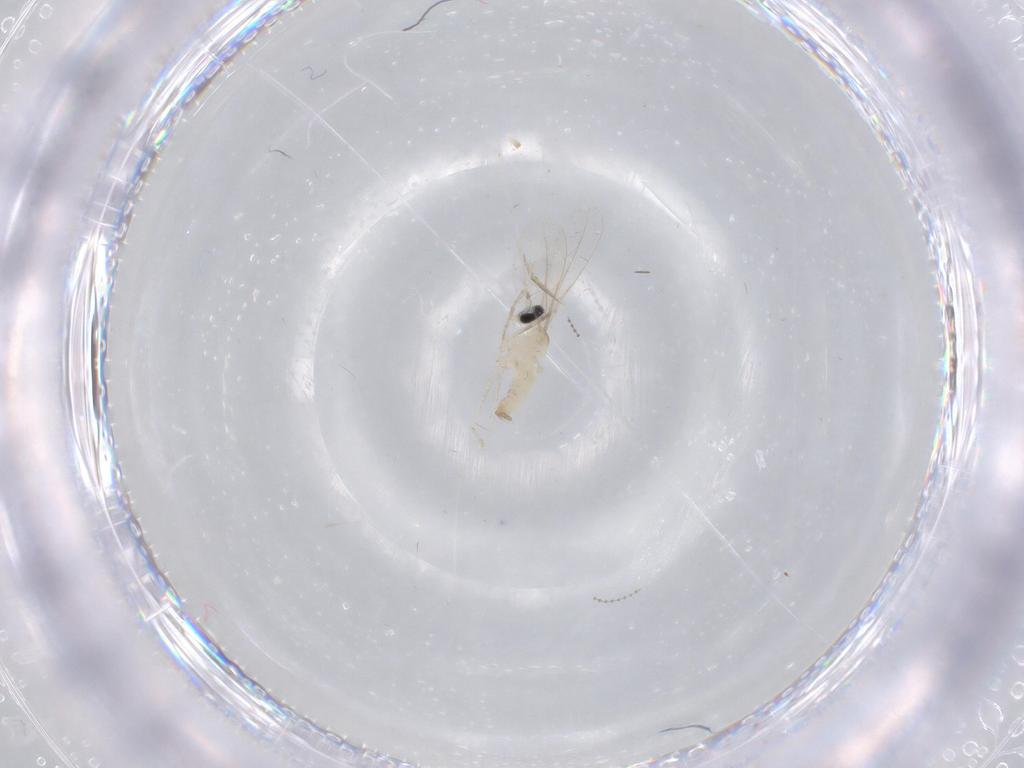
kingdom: Animalia
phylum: Arthropoda
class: Insecta
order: Diptera
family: Cecidomyiidae
